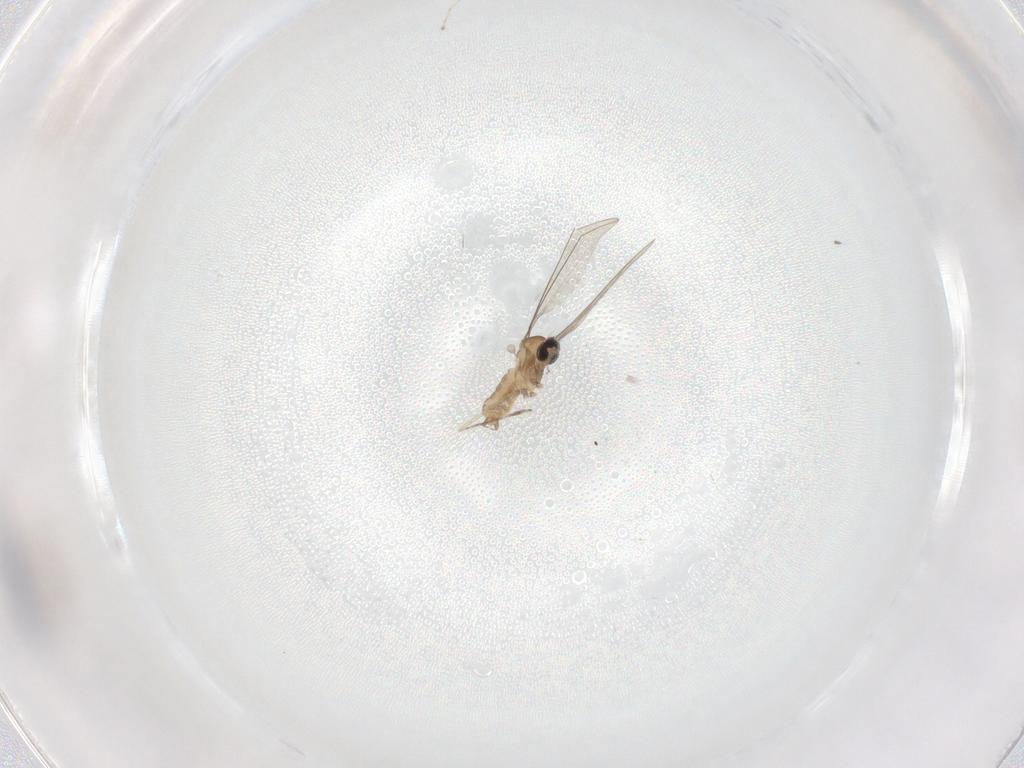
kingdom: Animalia
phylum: Arthropoda
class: Insecta
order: Diptera
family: Cecidomyiidae
